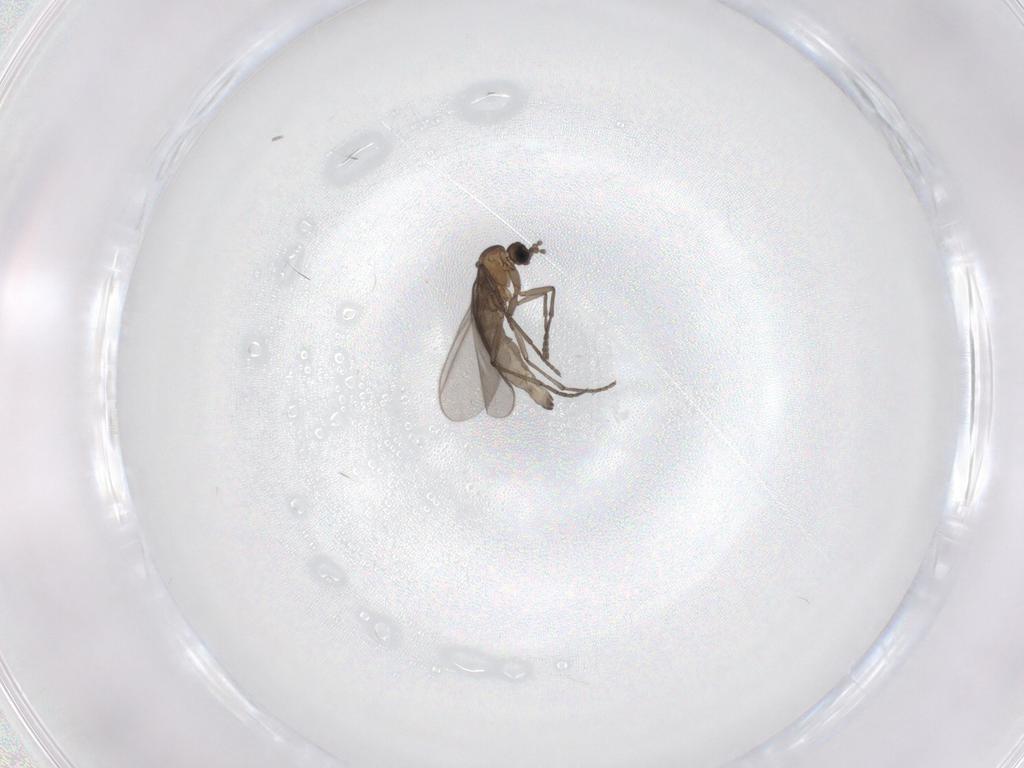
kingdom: Animalia
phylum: Arthropoda
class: Insecta
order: Diptera
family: Sciaridae
